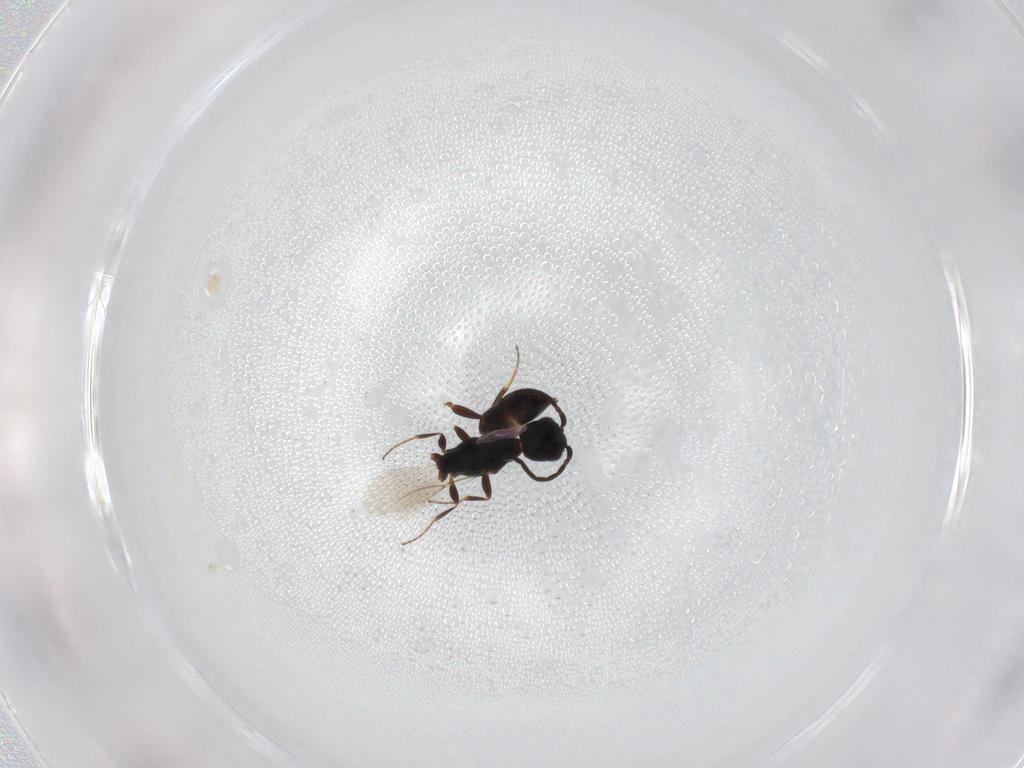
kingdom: Animalia
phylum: Arthropoda
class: Insecta
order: Hymenoptera
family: Bethylidae
